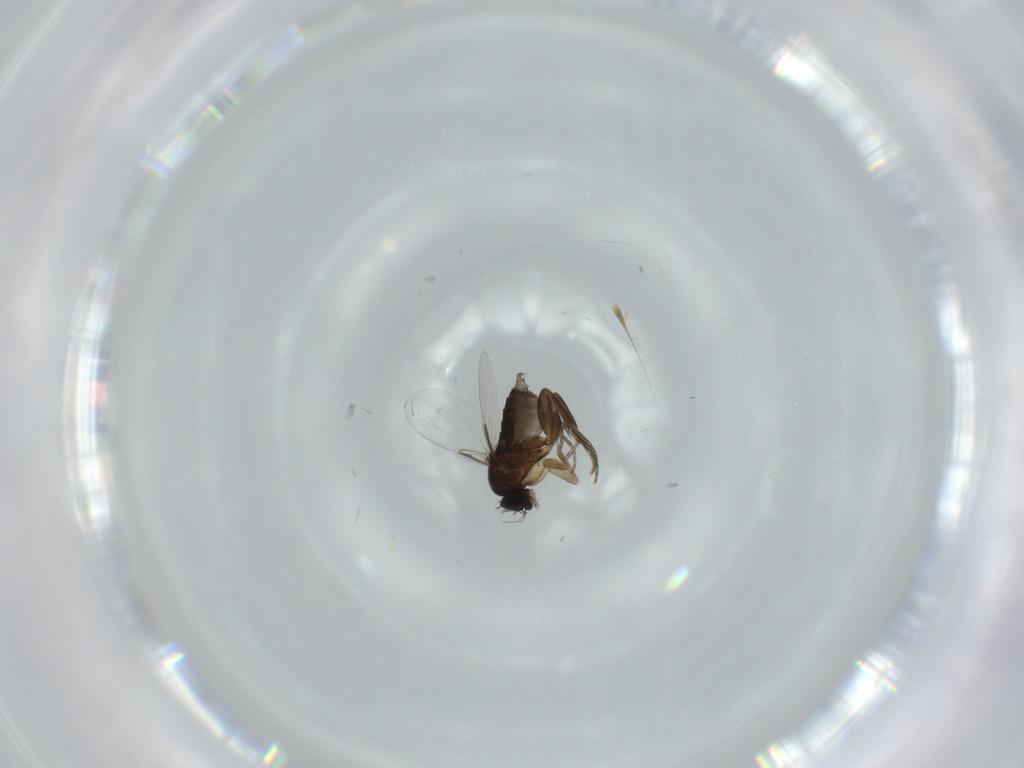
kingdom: Animalia
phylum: Arthropoda
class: Insecta
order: Diptera
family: Phoridae
